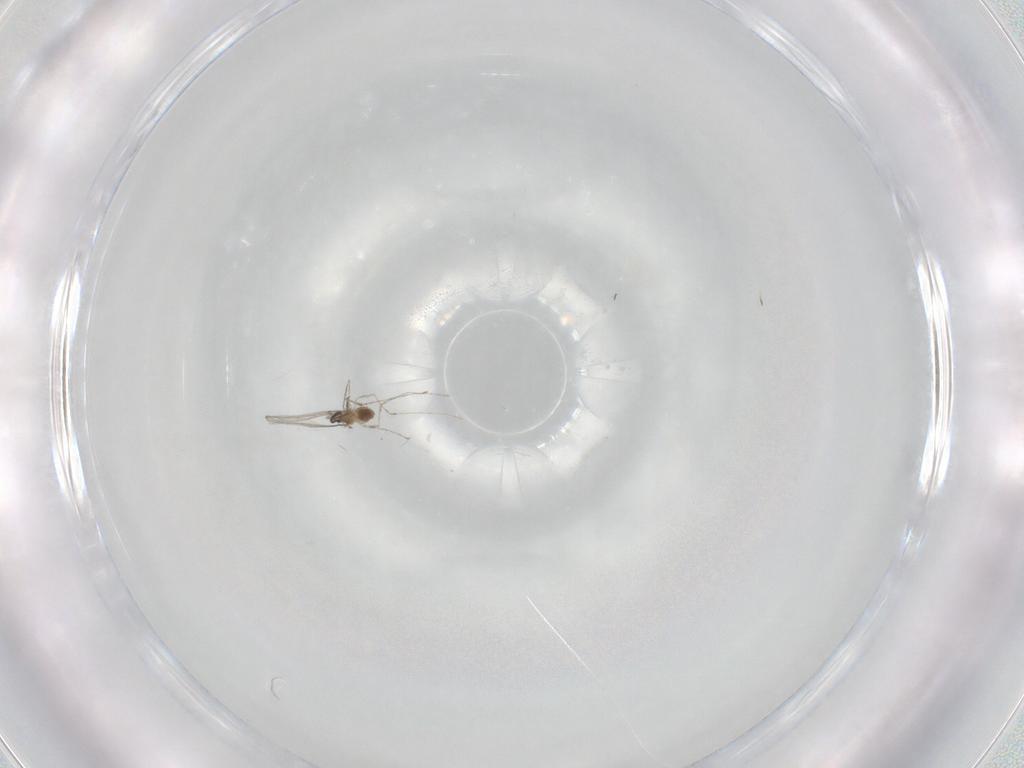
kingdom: Animalia
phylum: Arthropoda
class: Insecta
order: Diptera
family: Cecidomyiidae
